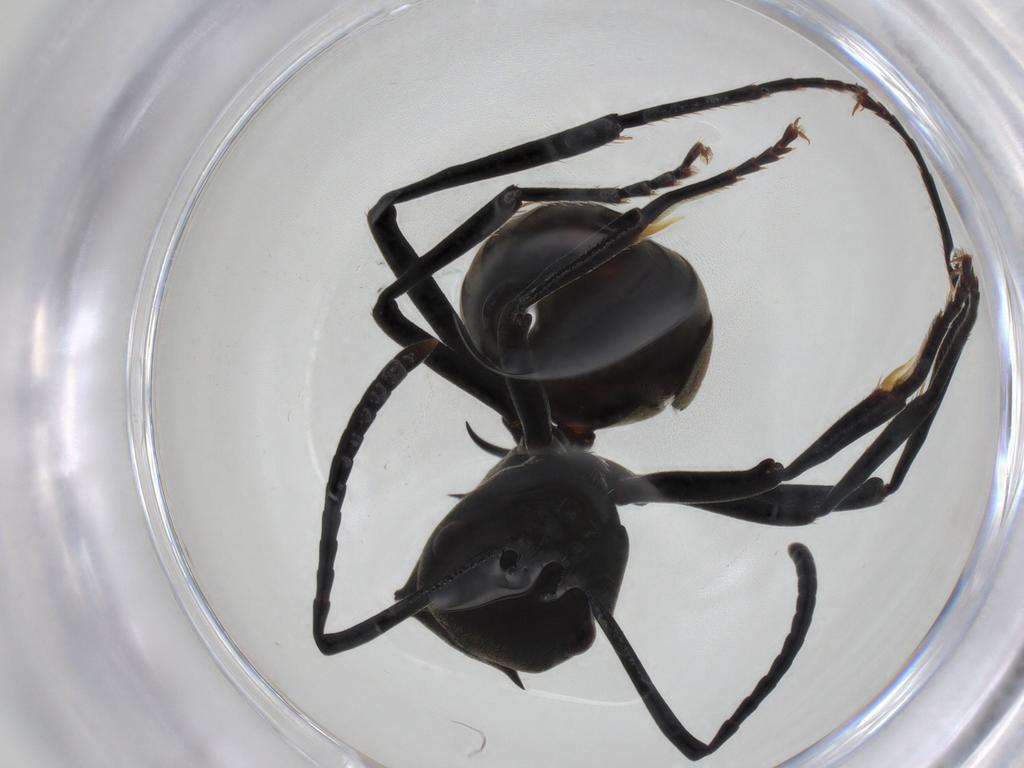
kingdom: Animalia
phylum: Arthropoda
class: Insecta
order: Hymenoptera
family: Formicidae
